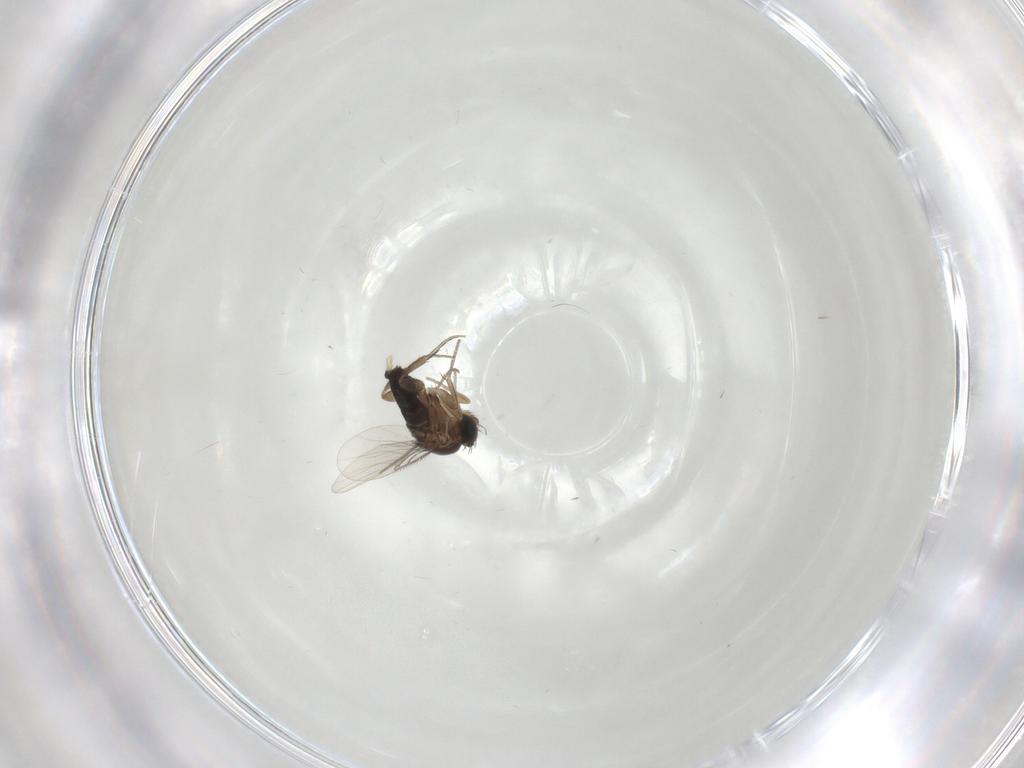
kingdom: Animalia
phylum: Arthropoda
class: Insecta
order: Diptera
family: Phoridae
